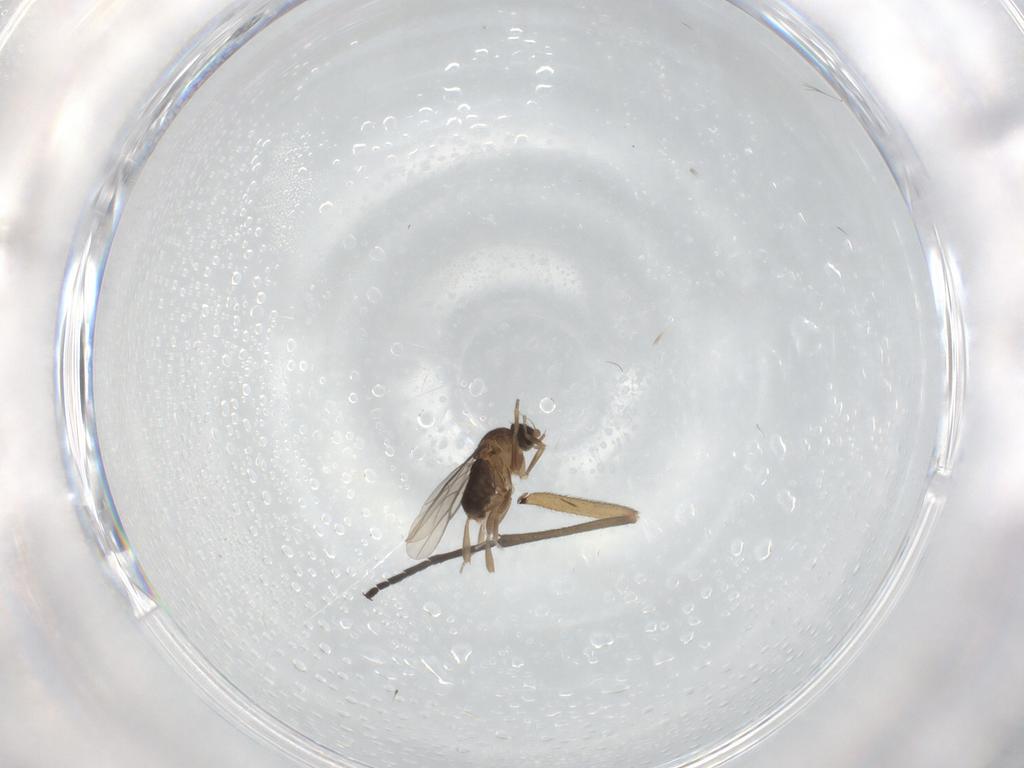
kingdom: Animalia
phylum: Arthropoda
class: Insecta
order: Diptera
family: Phoridae
